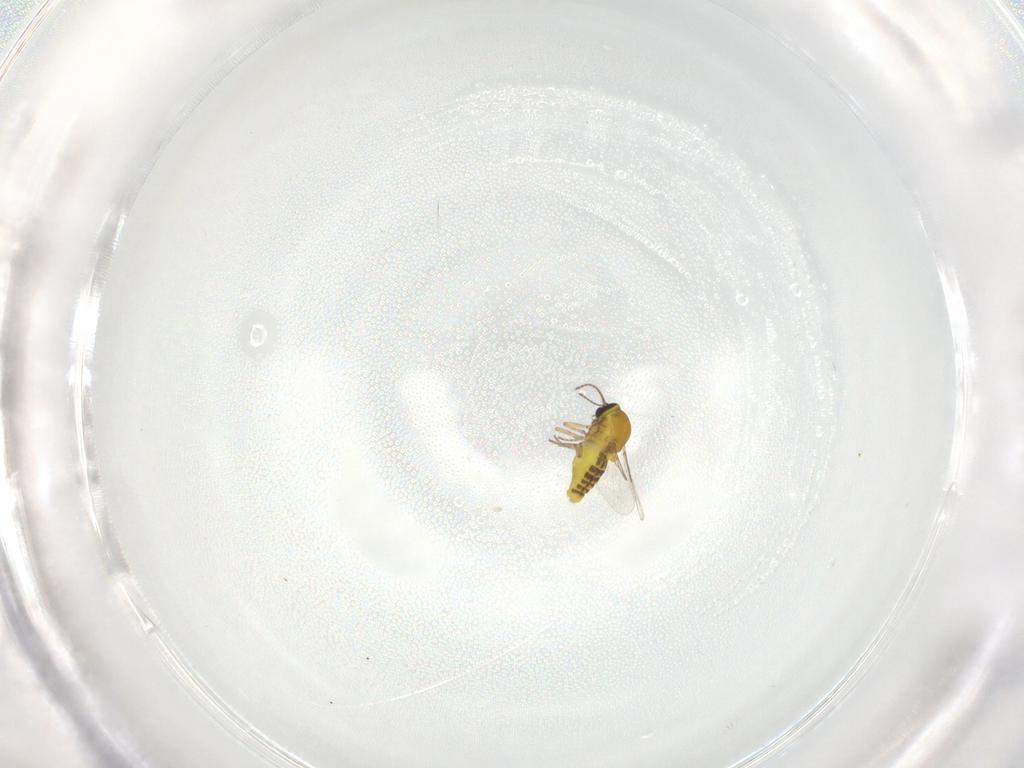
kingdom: Animalia
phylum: Arthropoda
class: Insecta
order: Diptera
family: Ceratopogonidae
